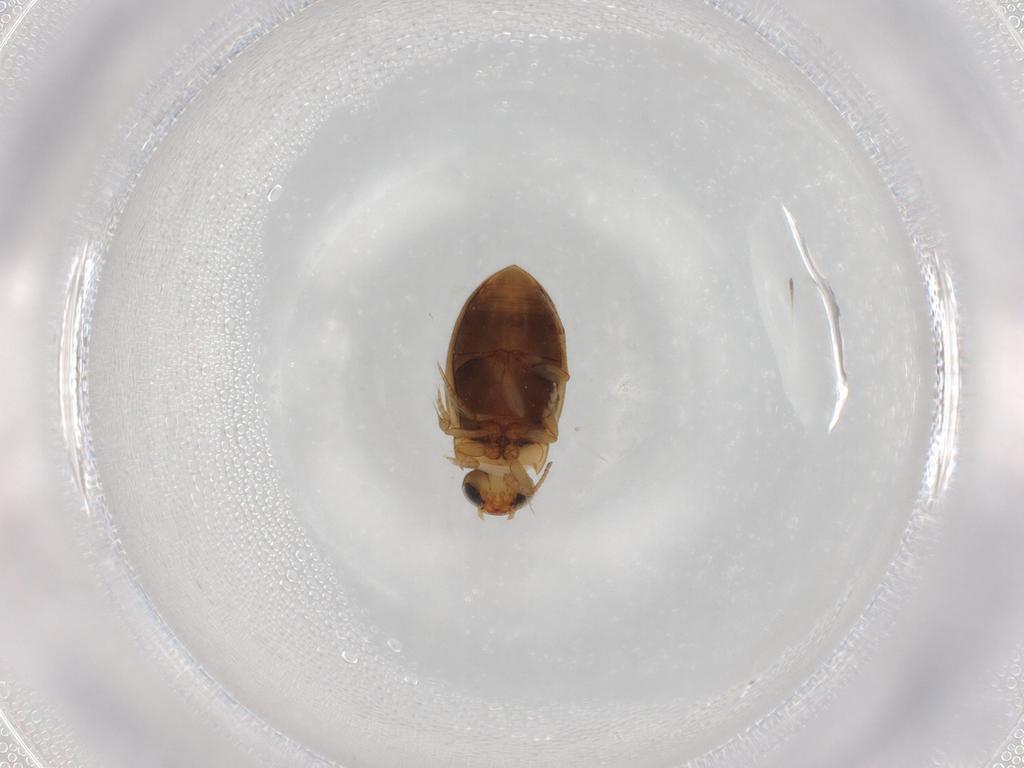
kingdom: Animalia
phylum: Arthropoda
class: Insecta
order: Coleoptera
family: Dytiscidae
